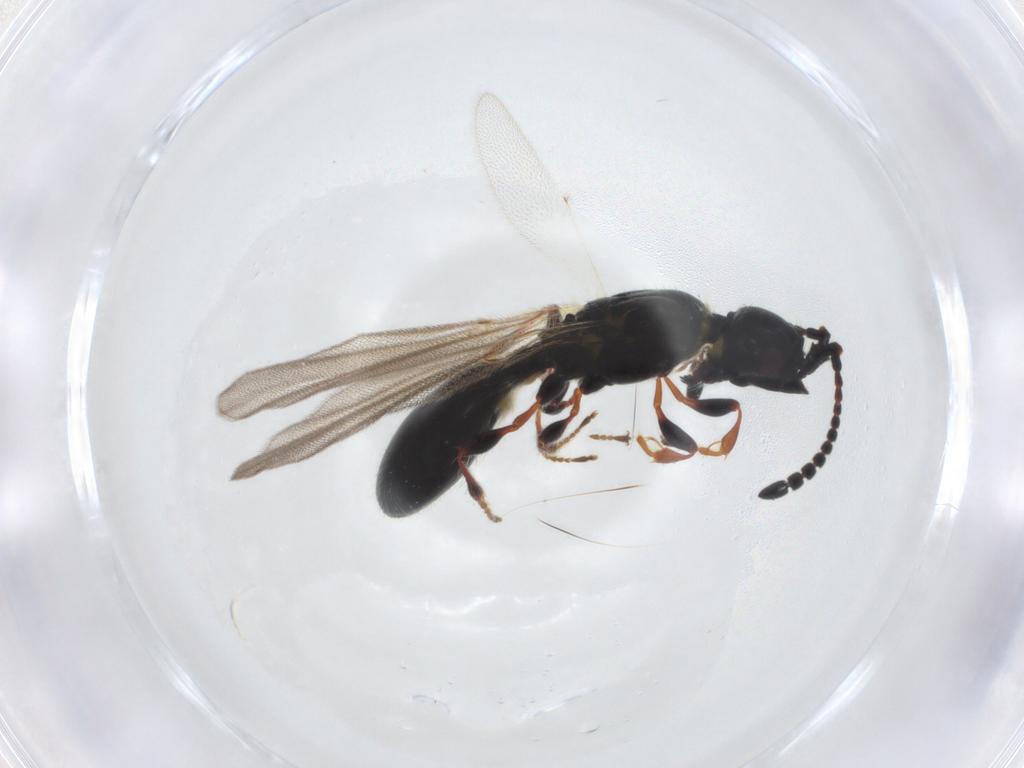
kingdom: Animalia
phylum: Arthropoda
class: Insecta
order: Hymenoptera
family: Diapriidae
